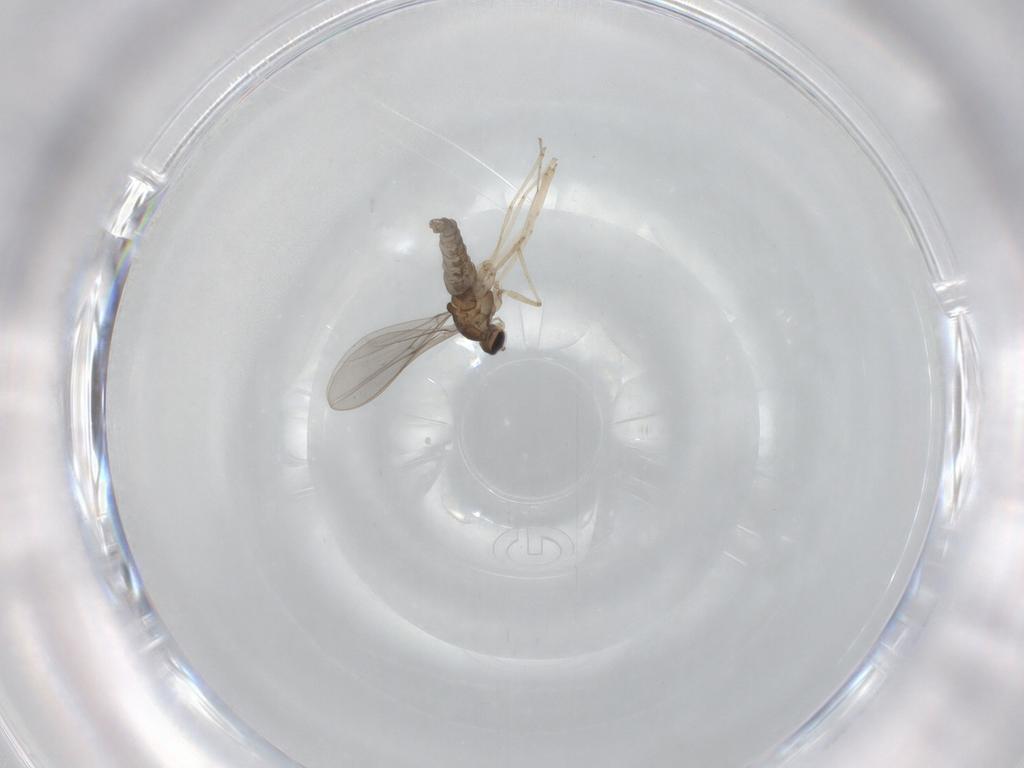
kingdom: Animalia
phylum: Arthropoda
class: Insecta
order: Diptera
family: Cecidomyiidae
